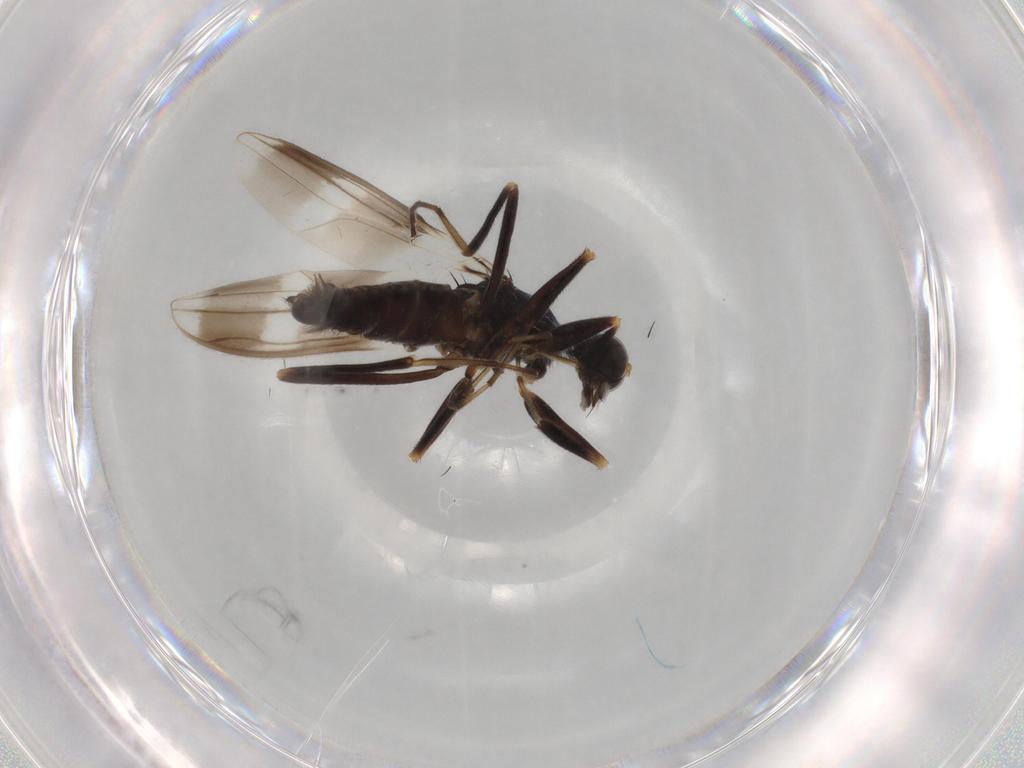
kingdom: Animalia
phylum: Arthropoda
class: Insecta
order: Diptera
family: Hybotidae
